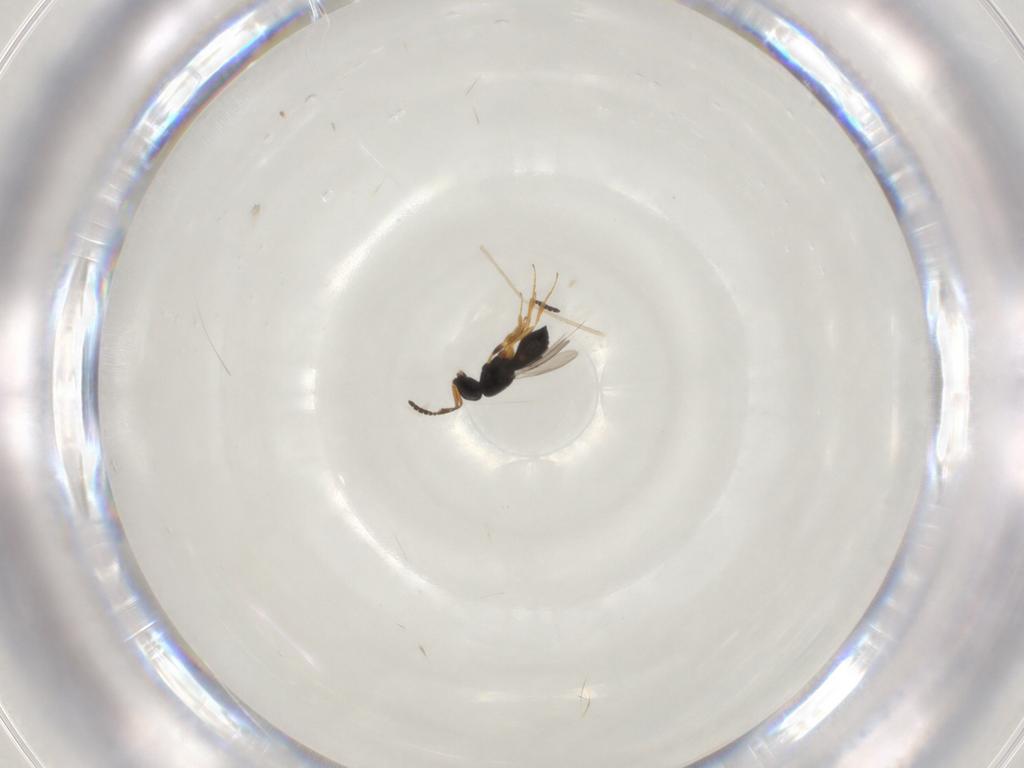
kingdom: Animalia
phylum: Arthropoda
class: Insecta
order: Hymenoptera
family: Scelionidae
